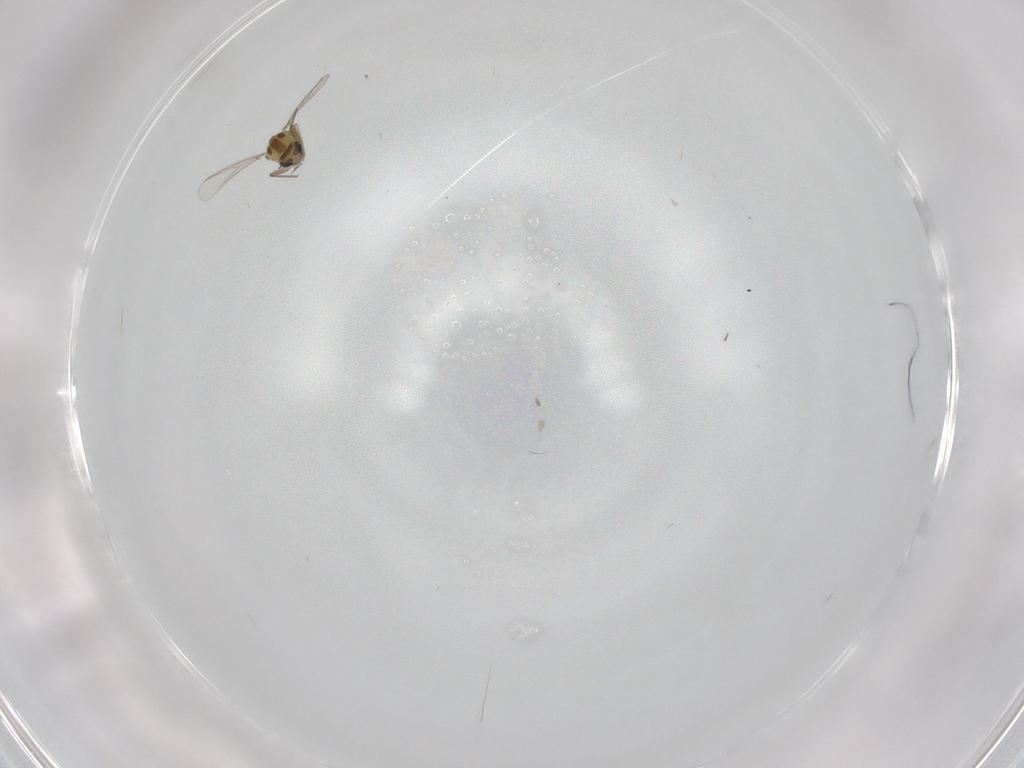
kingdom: Animalia
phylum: Arthropoda
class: Insecta
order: Diptera
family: Chironomidae
